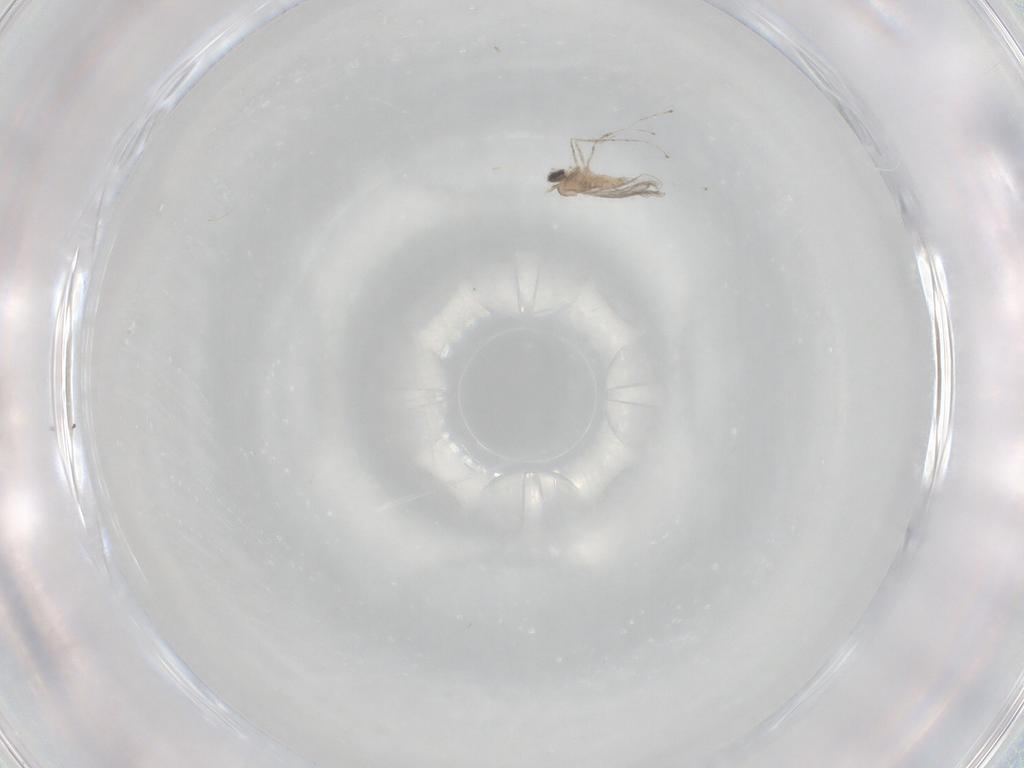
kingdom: Animalia
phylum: Arthropoda
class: Insecta
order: Diptera
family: Chironomidae
